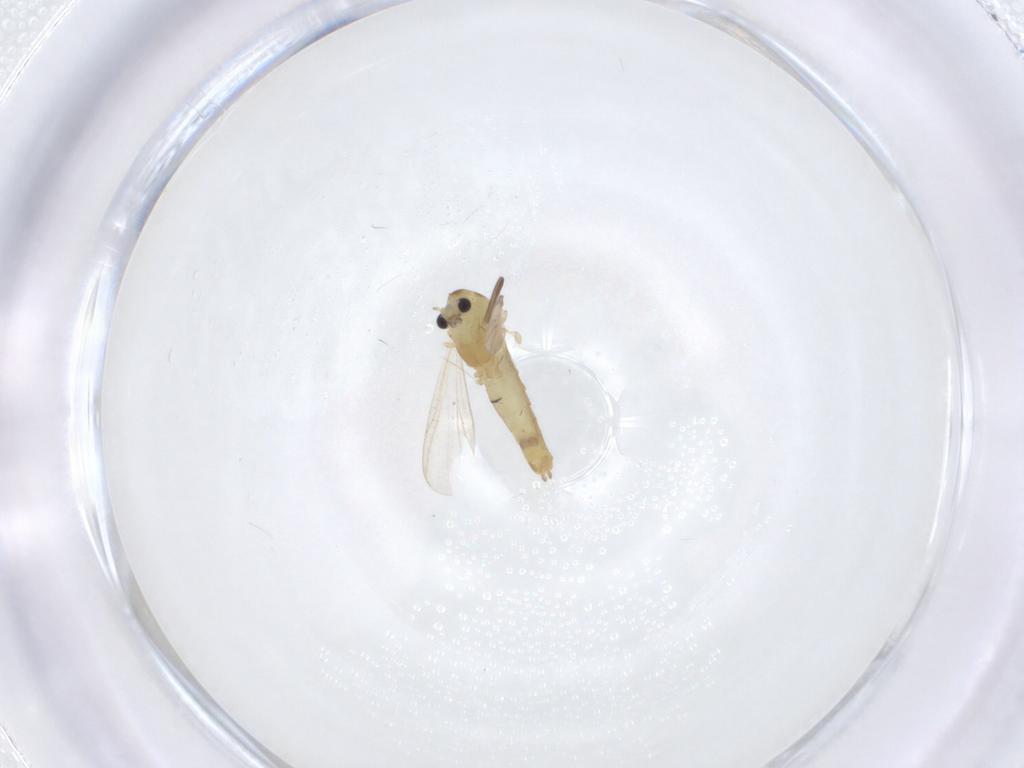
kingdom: Animalia
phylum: Arthropoda
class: Insecta
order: Diptera
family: Chironomidae
